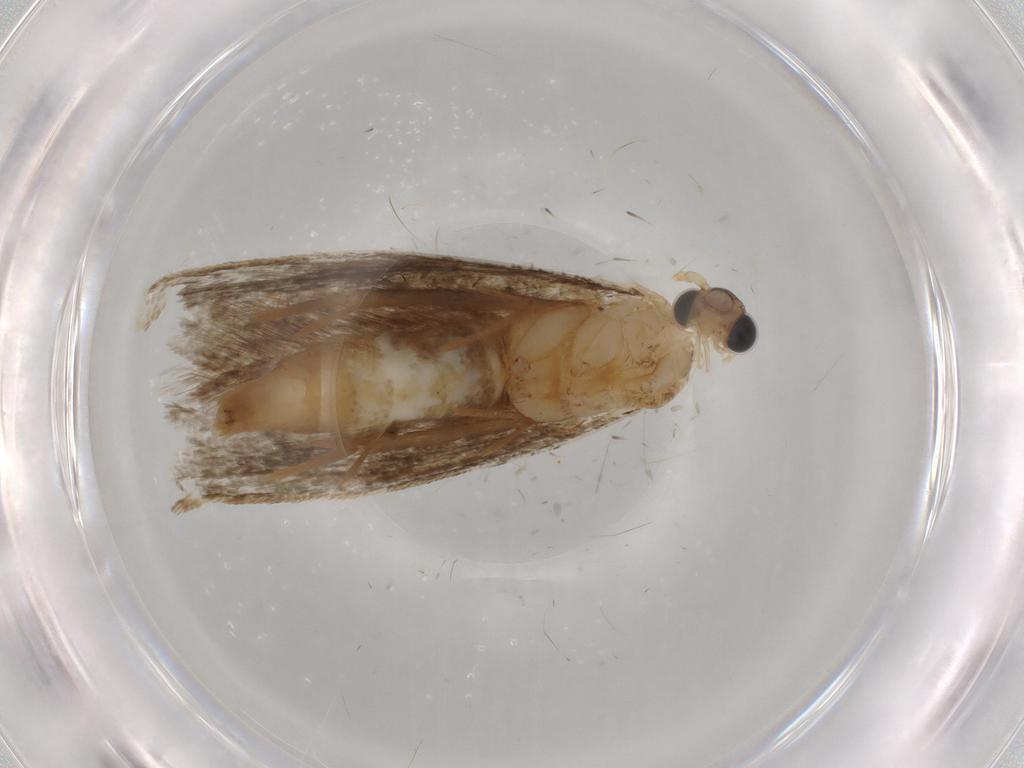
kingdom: Animalia
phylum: Arthropoda
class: Insecta
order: Lepidoptera
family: Tineidae
